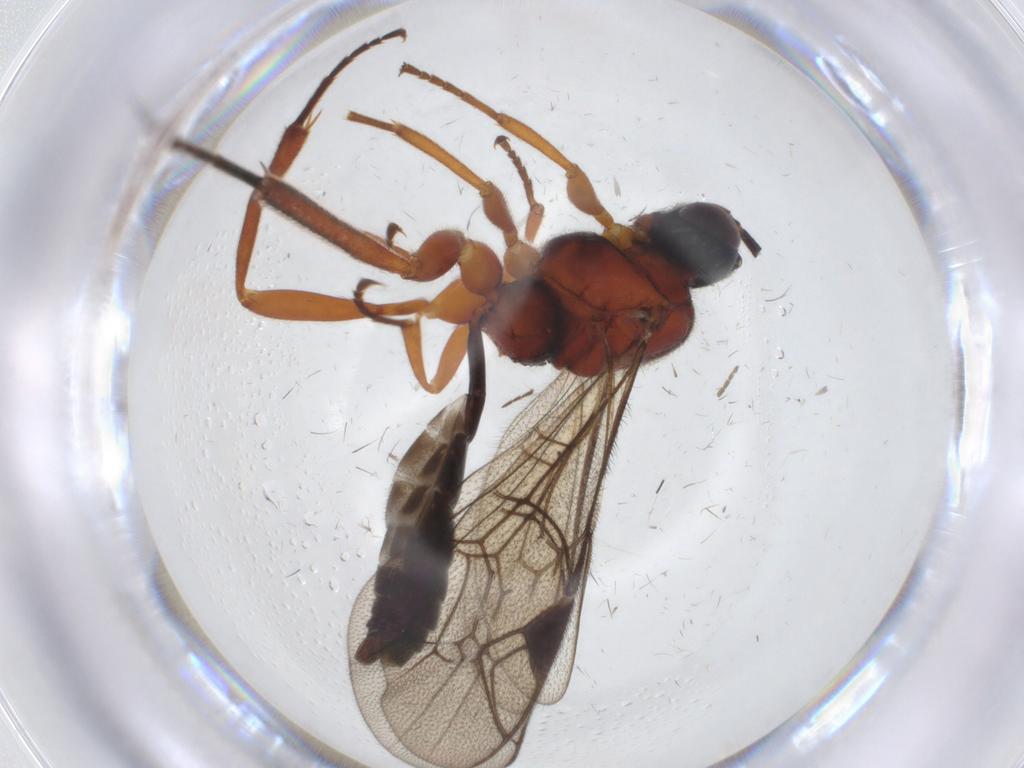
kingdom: Animalia
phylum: Arthropoda
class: Insecta
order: Hymenoptera
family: Ichneumonidae
